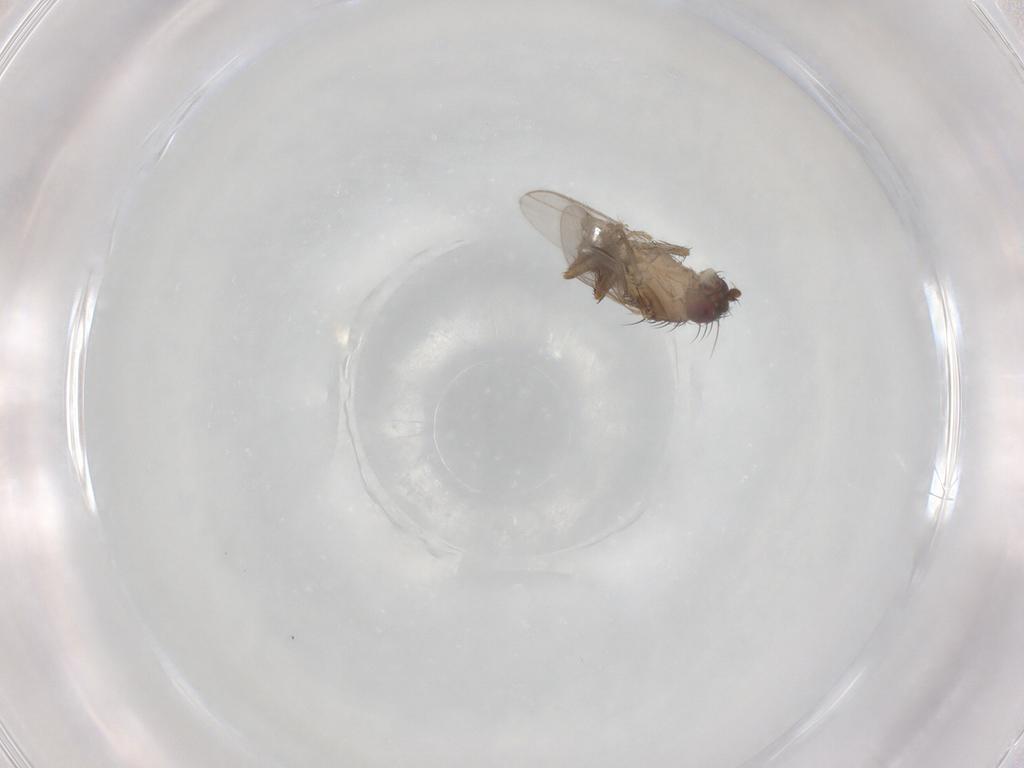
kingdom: Animalia
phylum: Arthropoda
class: Insecta
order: Diptera
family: Sphaeroceridae
